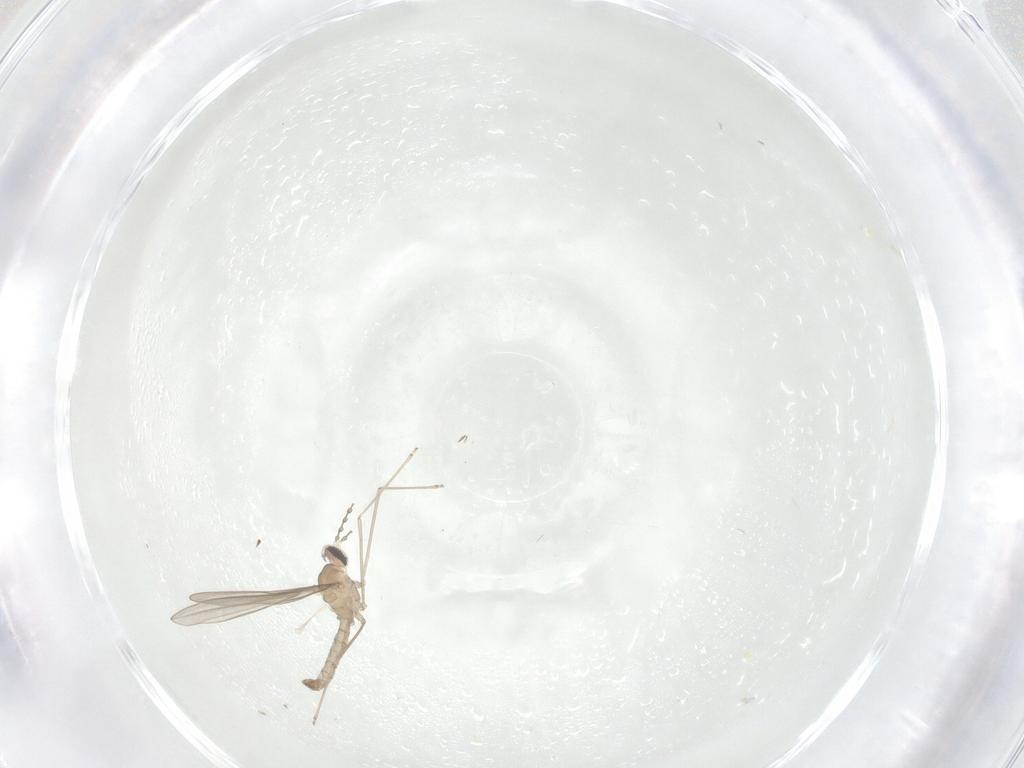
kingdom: Animalia
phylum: Arthropoda
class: Insecta
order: Diptera
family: Cecidomyiidae
